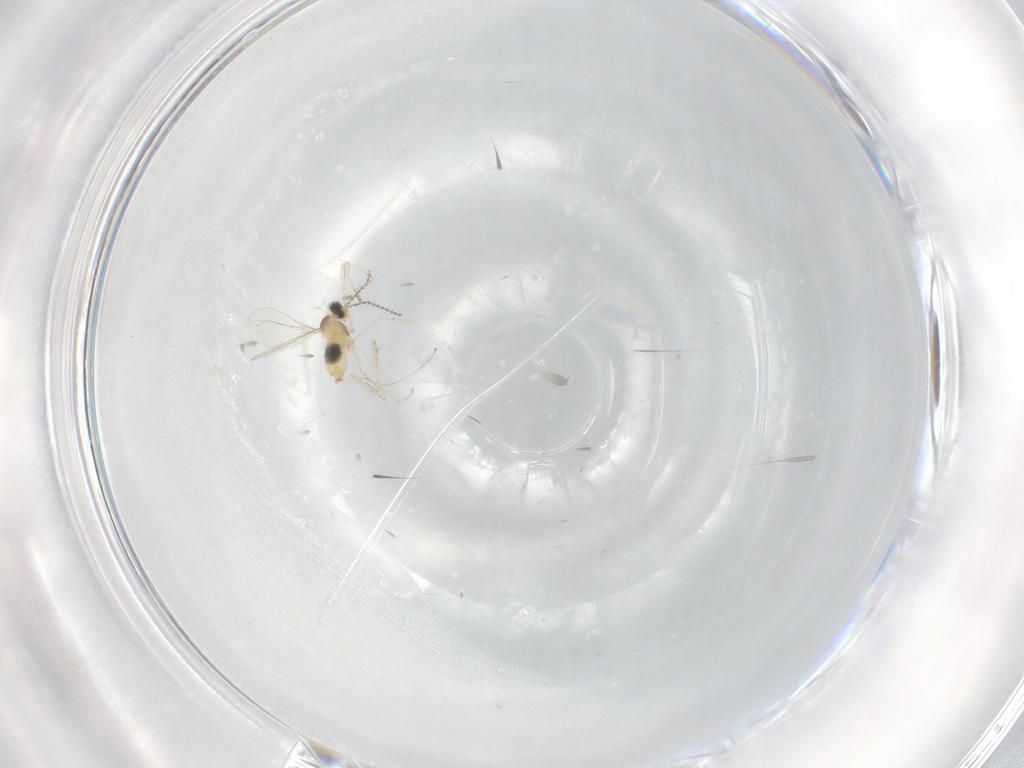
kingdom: Animalia
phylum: Arthropoda
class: Insecta
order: Diptera
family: Cecidomyiidae
